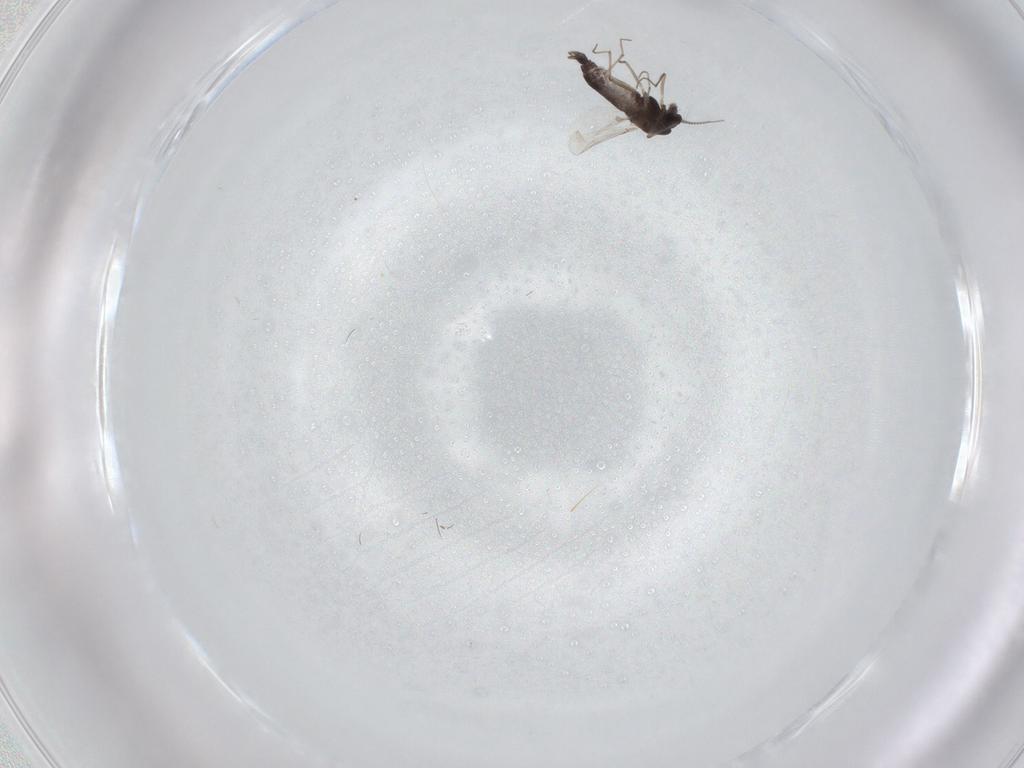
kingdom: Animalia
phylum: Arthropoda
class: Insecta
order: Diptera
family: Chironomidae
